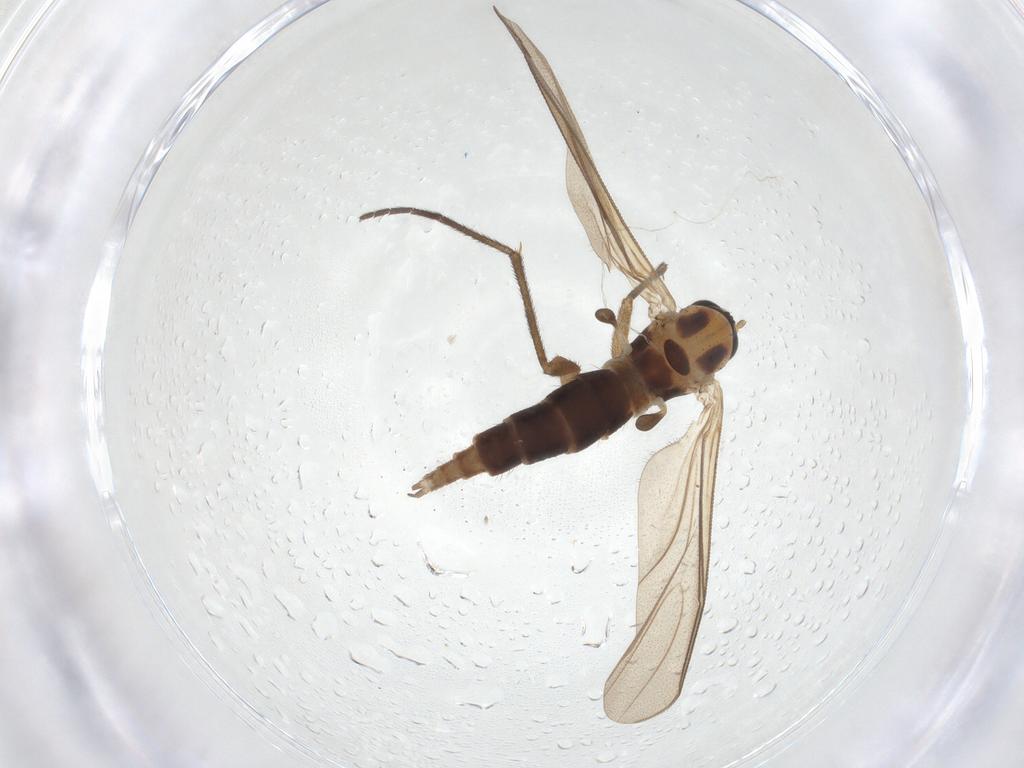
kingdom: Animalia
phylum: Arthropoda
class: Insecta
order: Diptera
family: Sciaridae
